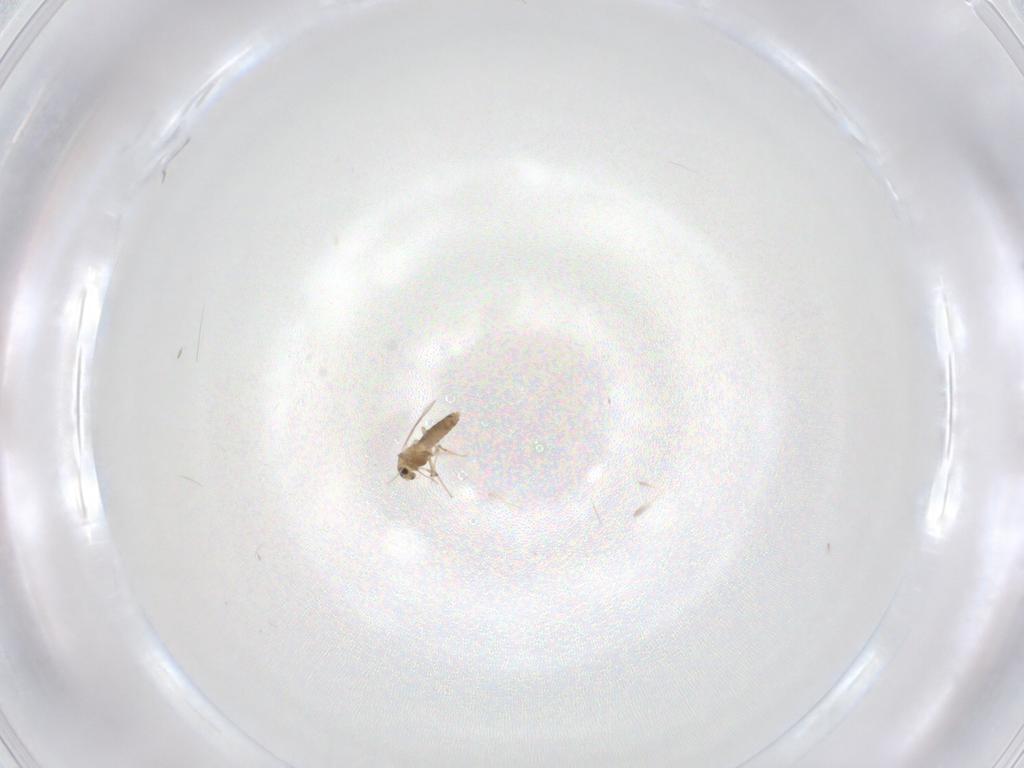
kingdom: Animalia
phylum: Arthropoda
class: Insecta
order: Diptera
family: Chironomidae
